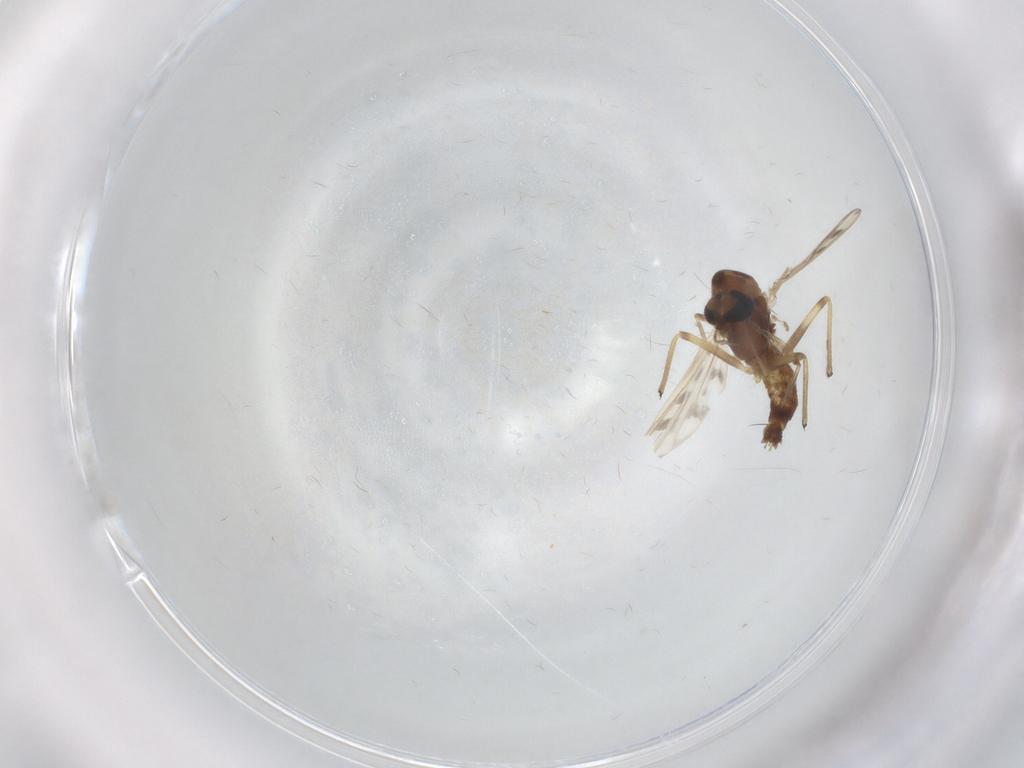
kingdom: Animalia
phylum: Arthropoda
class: Insecta
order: Diptera
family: Chironomidae
